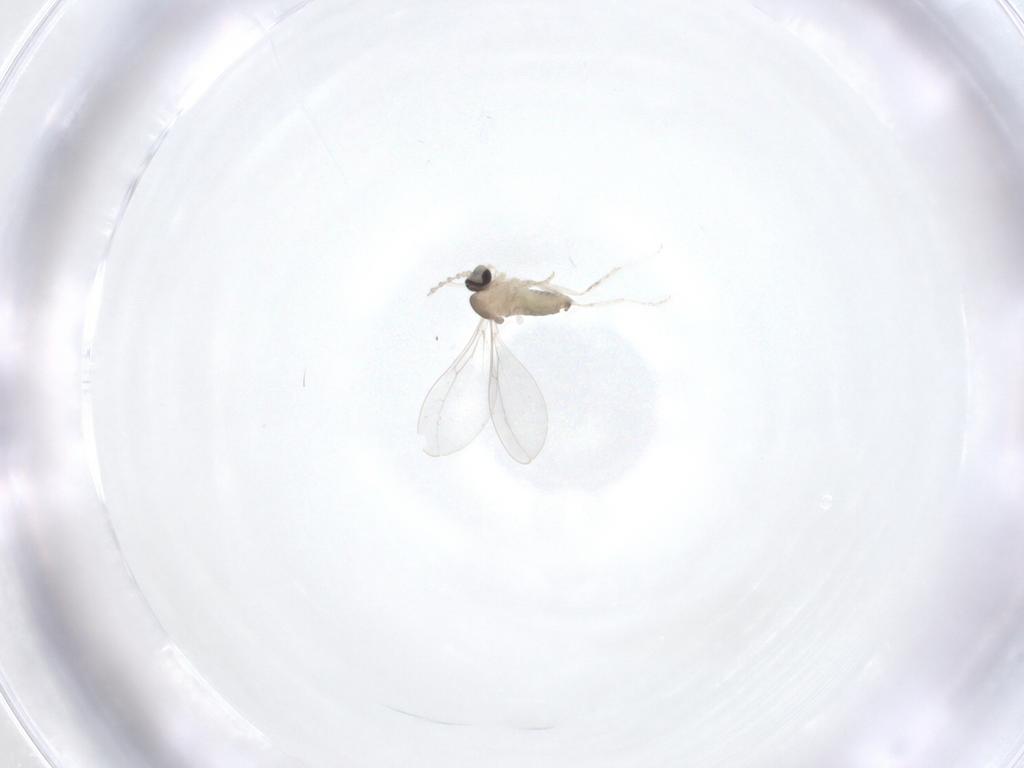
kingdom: Animalia
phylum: Arthropoda
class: Insecta
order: Diptera
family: Cecidomyiidae
